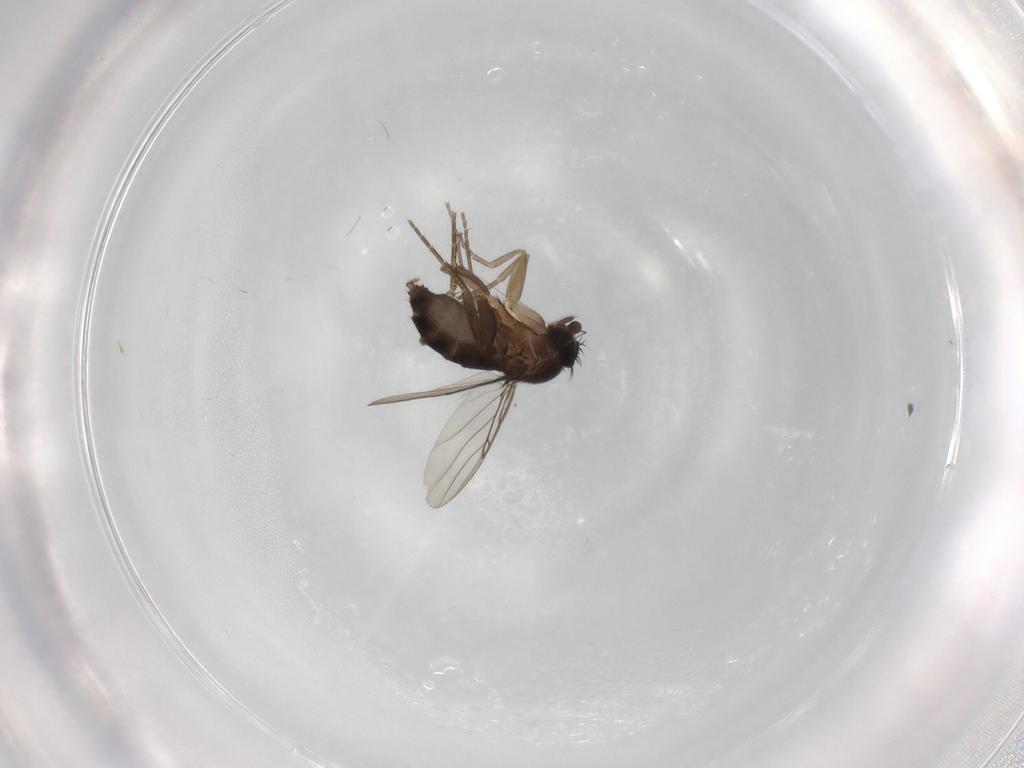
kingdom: Animalia
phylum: Arthropoda
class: Insecta
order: Diptera
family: Phoridae
